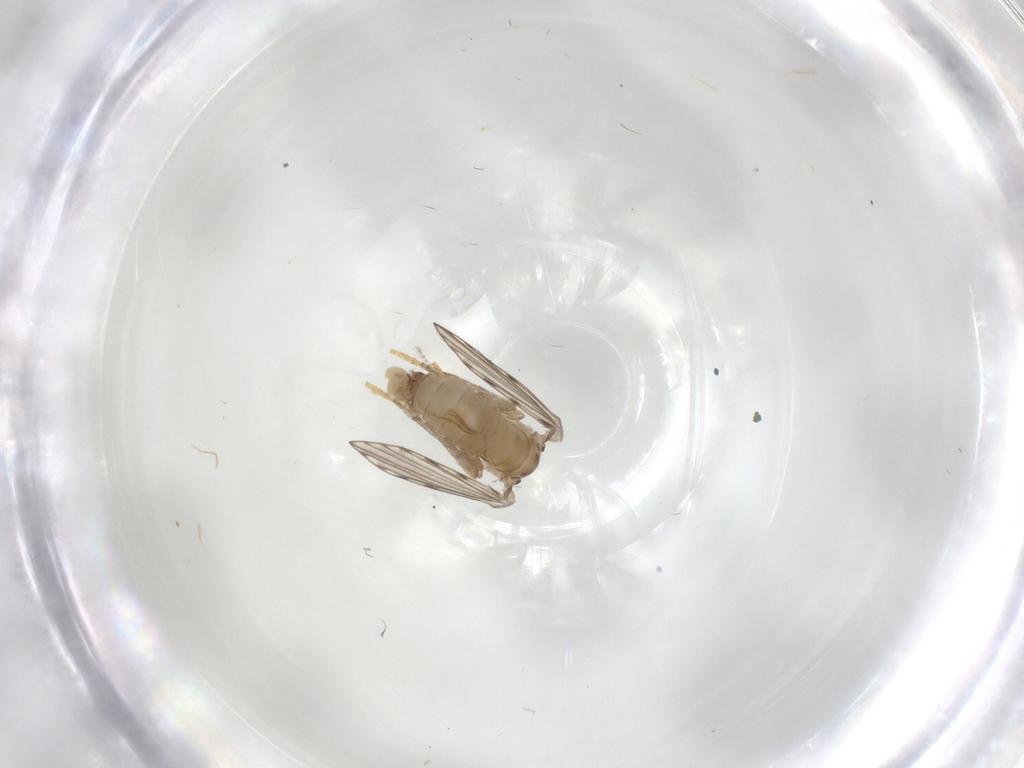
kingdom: Animalia
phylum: Arthropoda
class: Insecta
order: Diptera
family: Psychodidae
